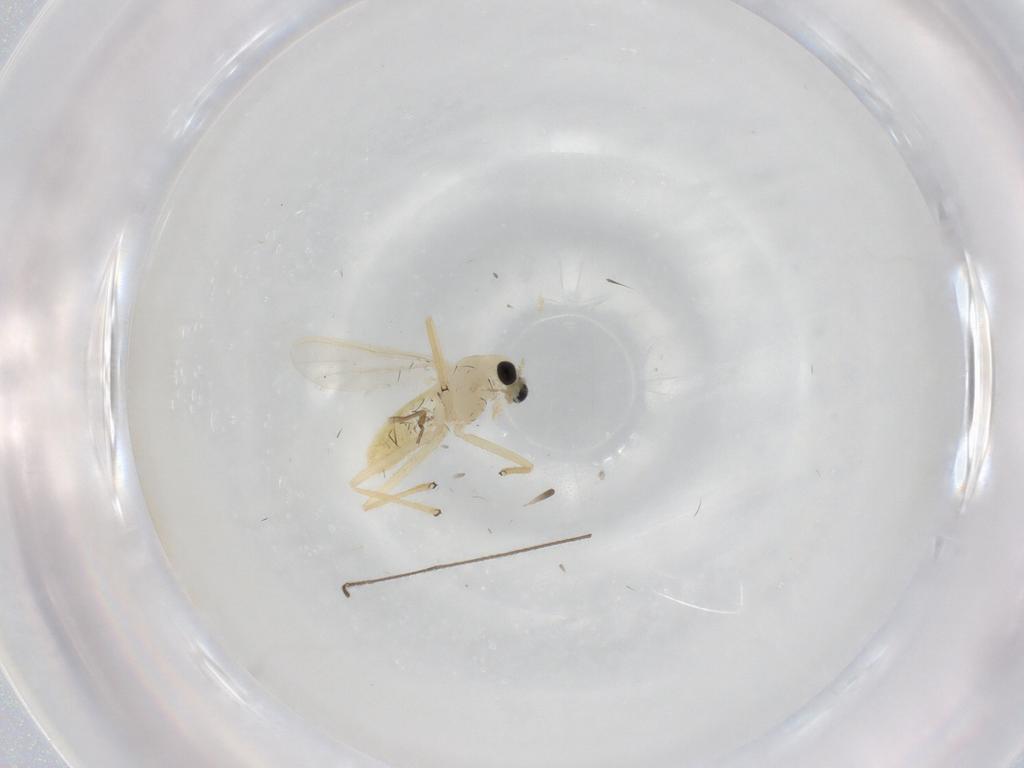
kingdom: Animalia
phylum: Arthropoda
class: Insecta
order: Diptera
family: Chironomidae
